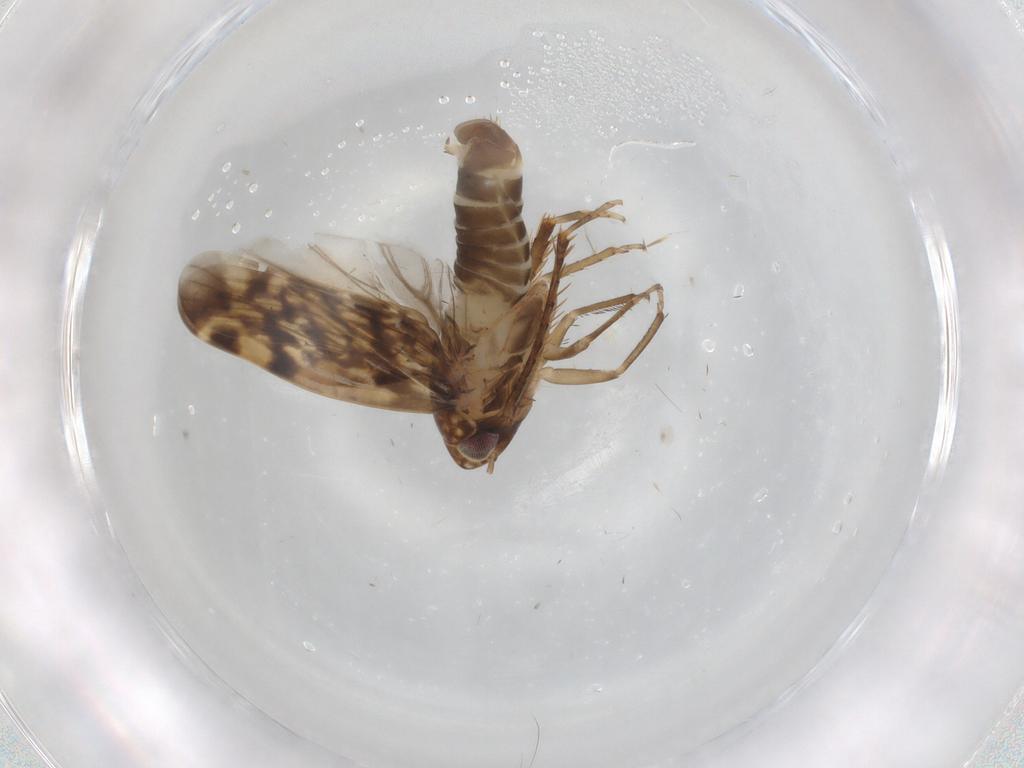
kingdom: Animalia
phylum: Arthropoda
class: Insecta
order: Hemiptera
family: Cicadellidae
